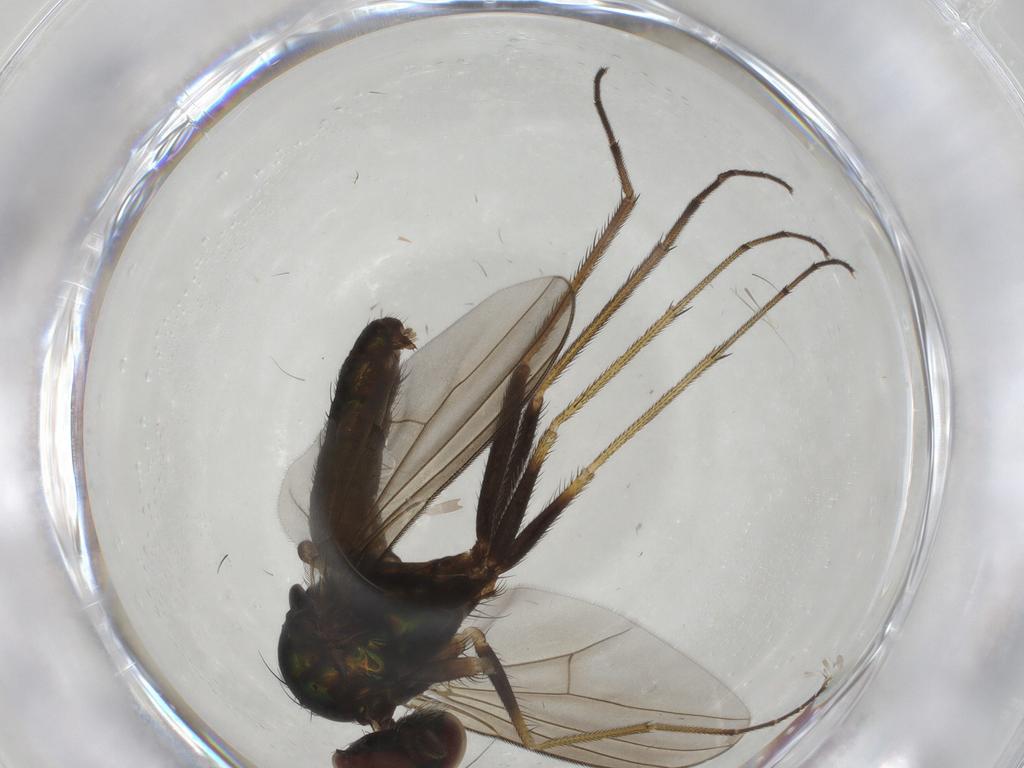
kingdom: Animalia
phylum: Arthropoda
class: Insecta
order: Diptera
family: Dolichopodidae
